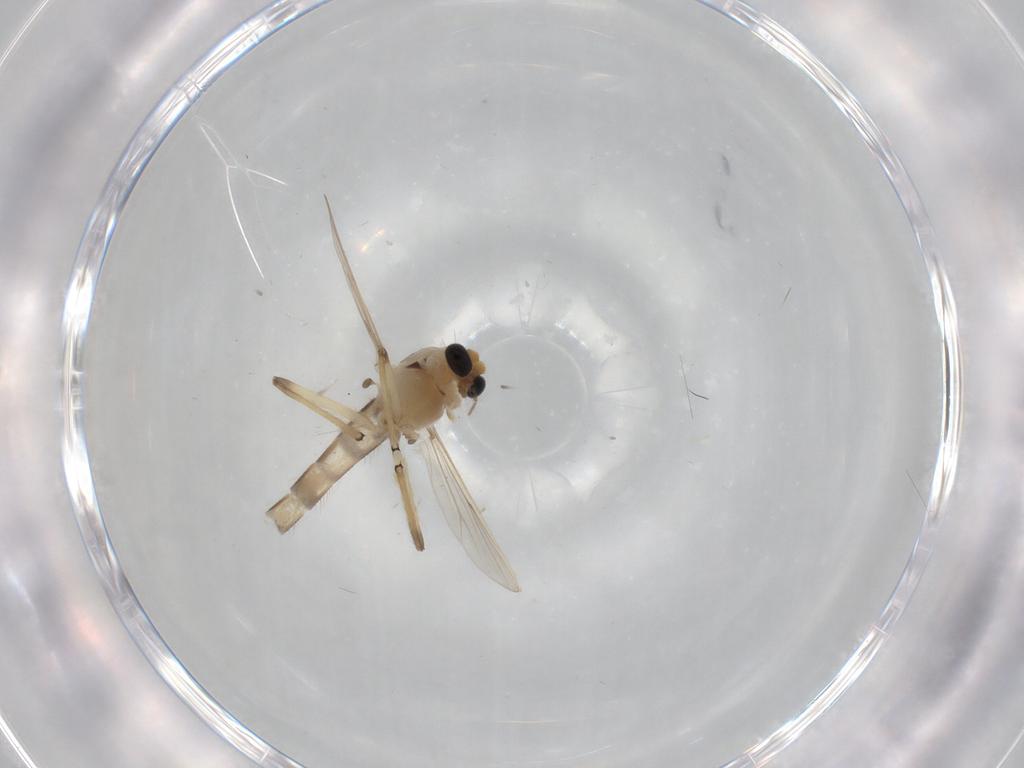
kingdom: Animalia
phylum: Arthropoda
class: Insecta
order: Diptera
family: Chironomidae
